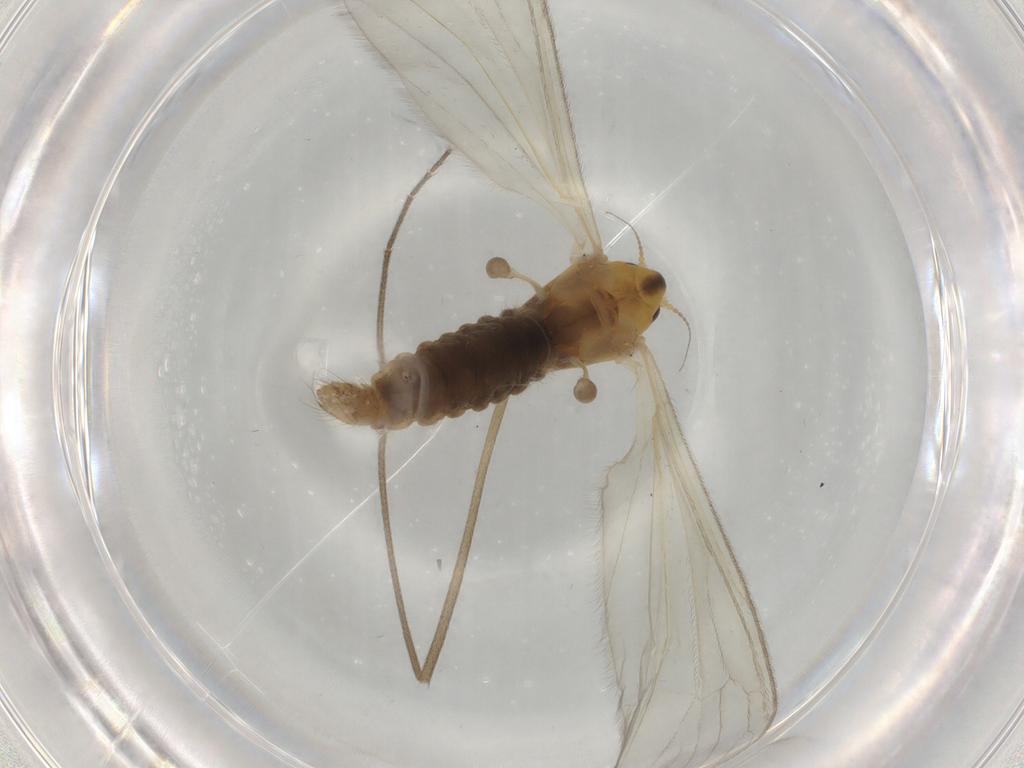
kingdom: Animalia
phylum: Arthropoda
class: Insecta
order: Diptera
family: Limoniidae
